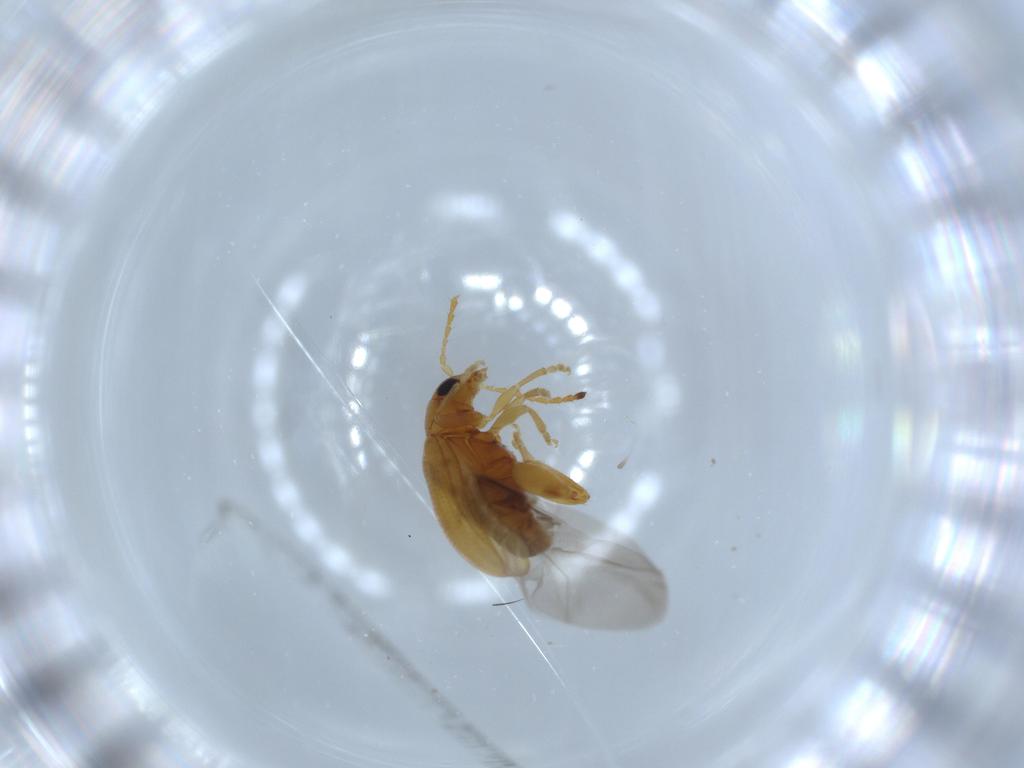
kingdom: Animalia
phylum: Arthropoda
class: Insecta
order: Coleoptera
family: Chrysomelidae
